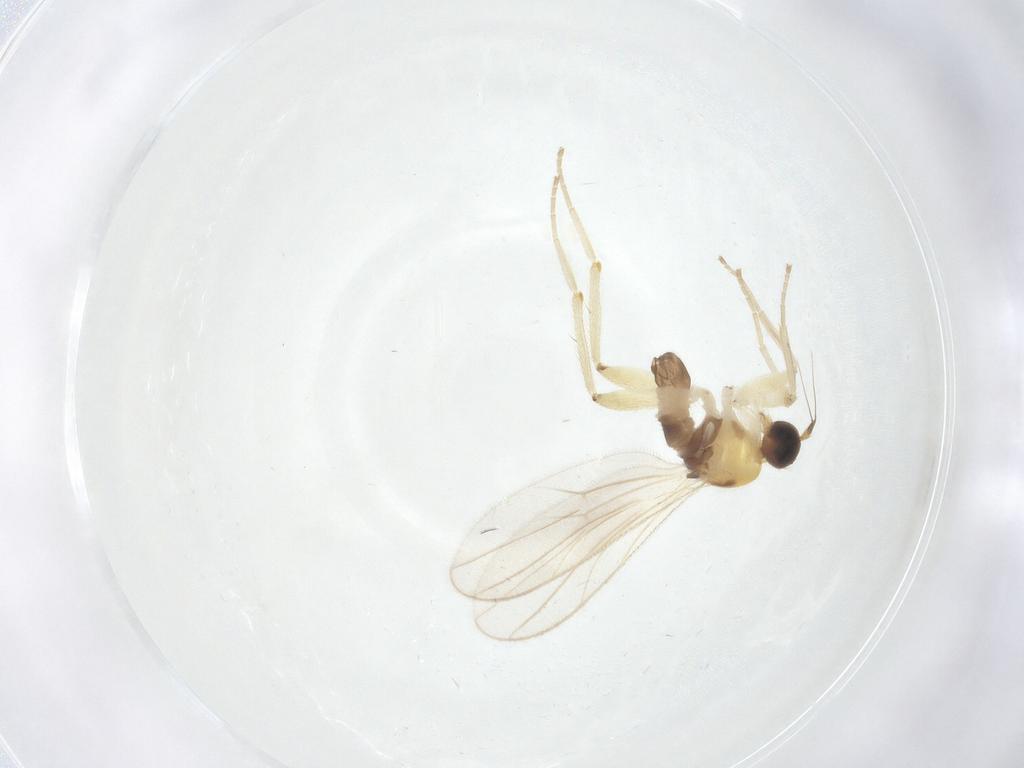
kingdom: Animalia
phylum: Arthropoda
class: Insecta
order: Diptera
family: Hybotidae
